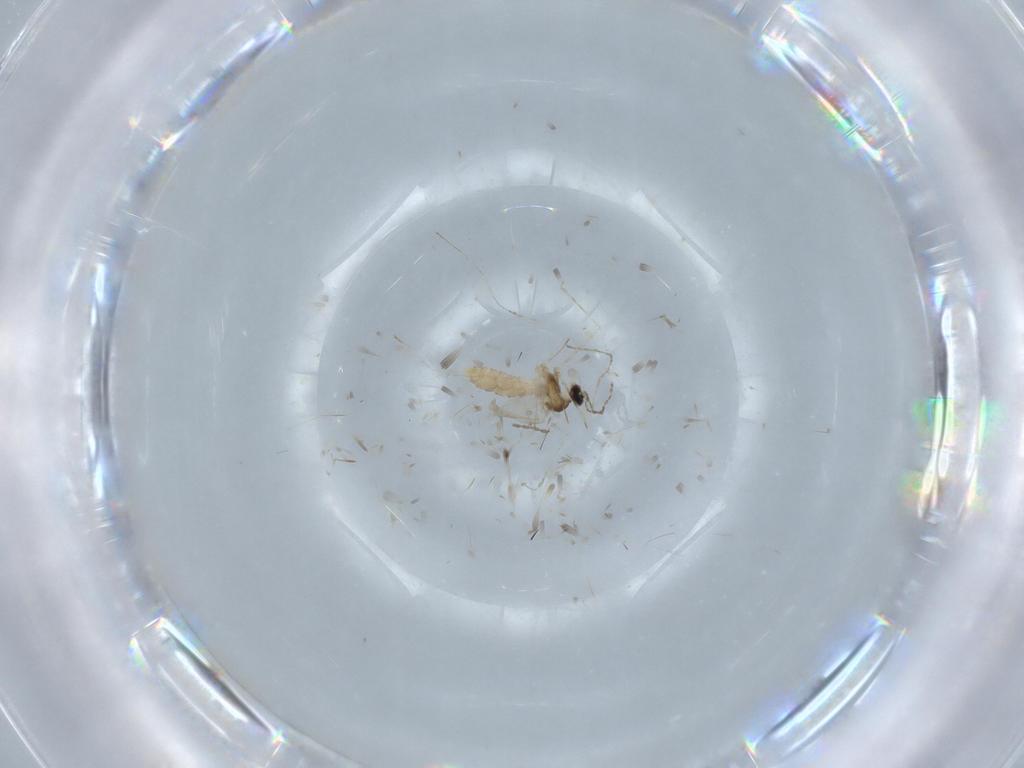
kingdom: Animalia
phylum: Arthropoda
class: Insecta
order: Diptera
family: Cecidomyiidae
